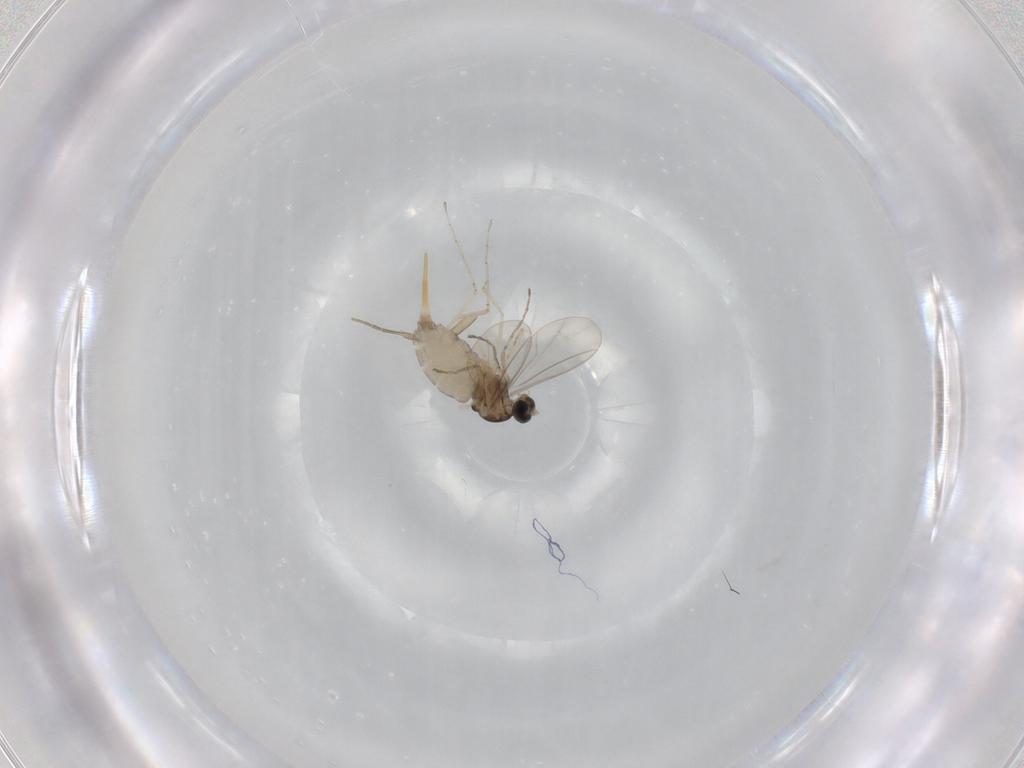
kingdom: Animalia
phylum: Arthropoda
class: Insecta
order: Diptera
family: Cecidomyiidae
